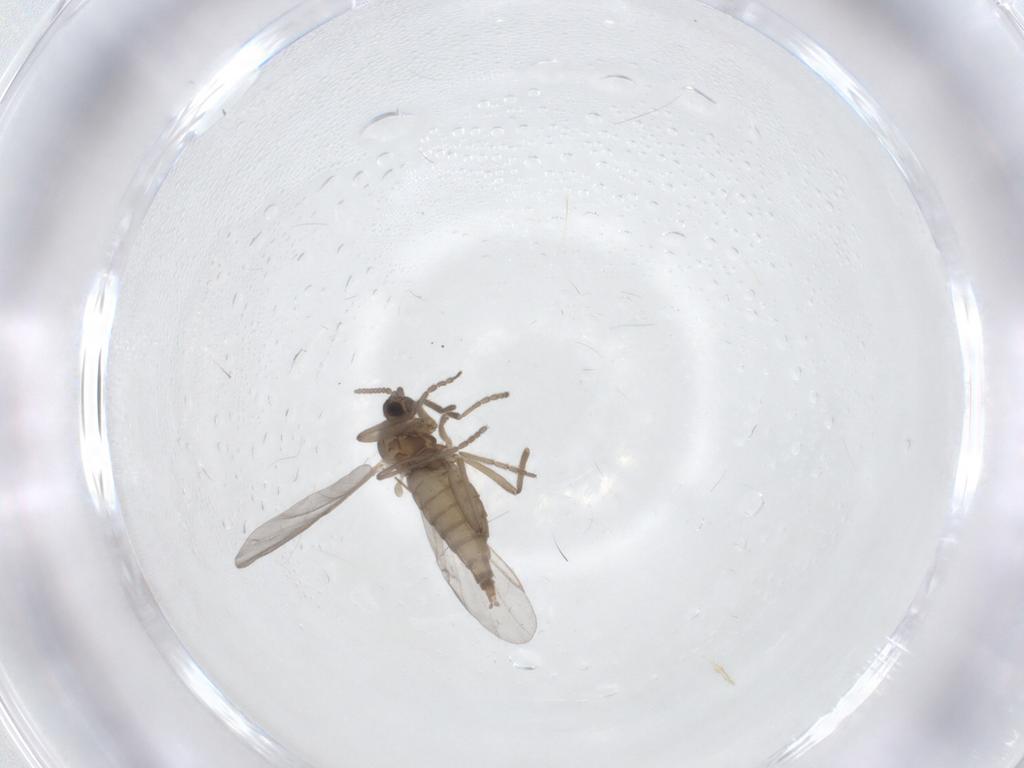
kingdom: Animalia
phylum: Arthropoda
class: Insecta
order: Diptera
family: Cecidomyiidae
